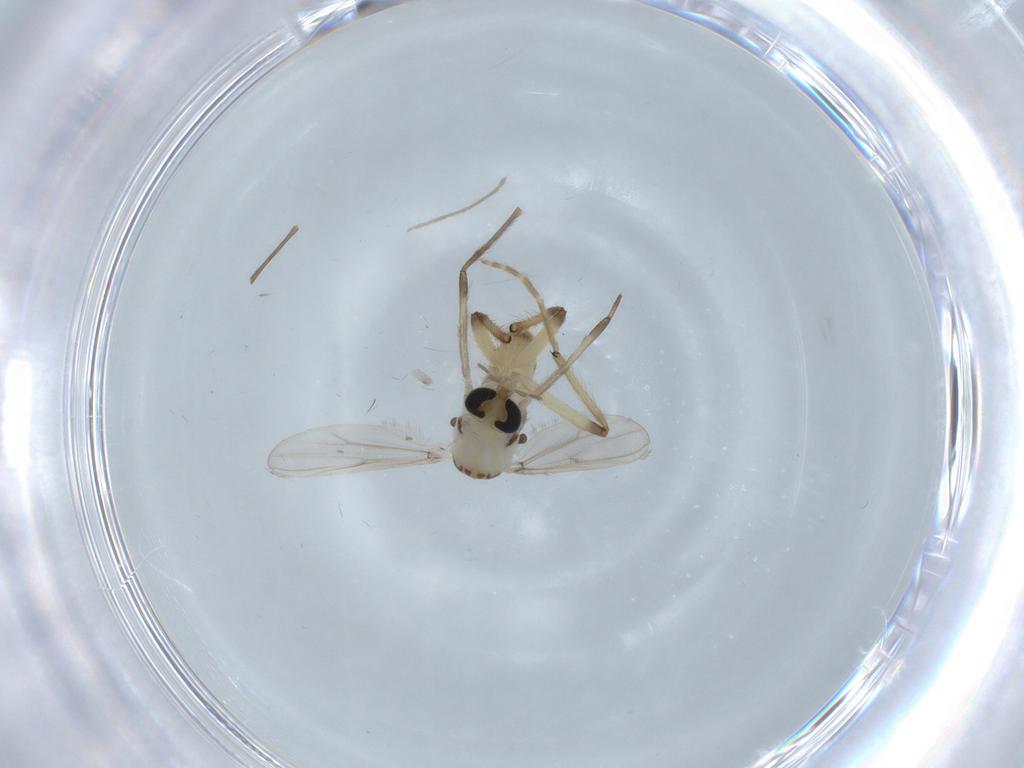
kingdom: Animalia
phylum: Arthropoda
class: Insecta
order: Diptera
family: Chironomidae
